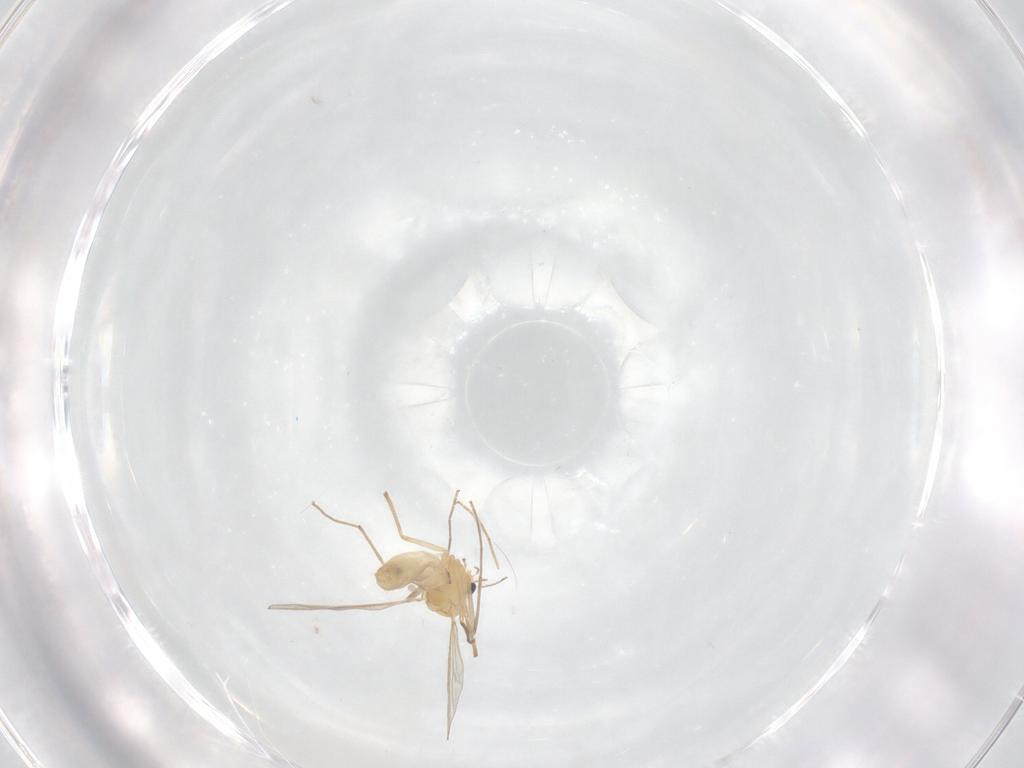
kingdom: Animalia
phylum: Arthropoda
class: Insecta
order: Diptera
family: Chironomidae
